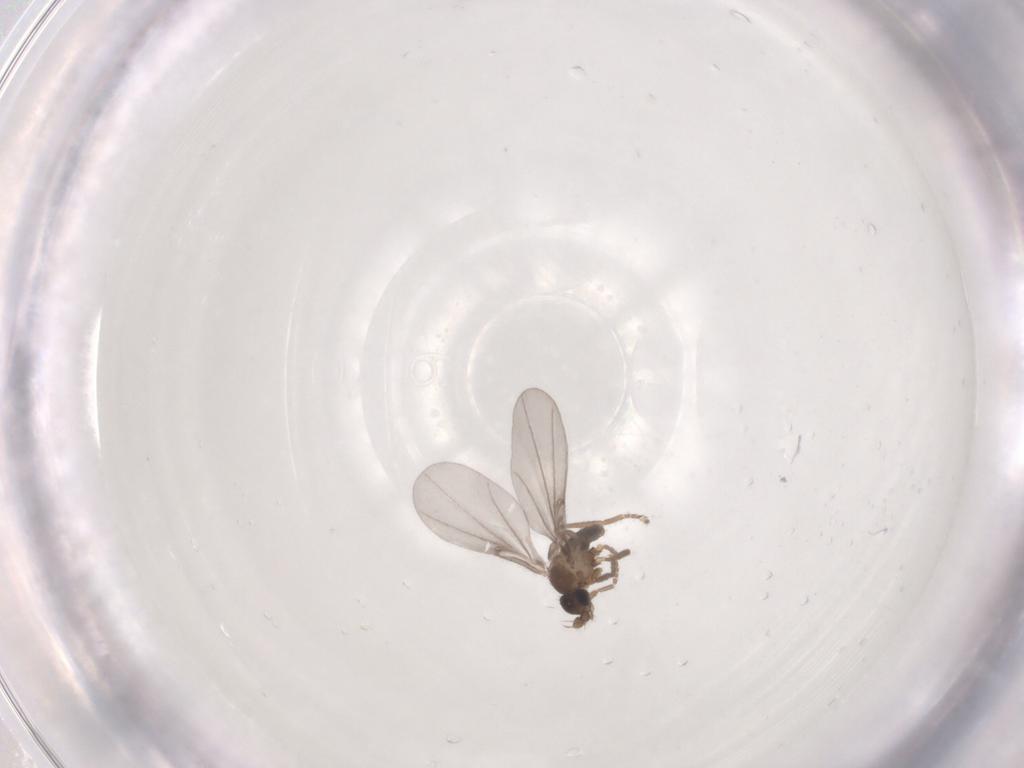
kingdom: Animalia
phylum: Arthropoda
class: Insecta
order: Diptera
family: Phoridae
